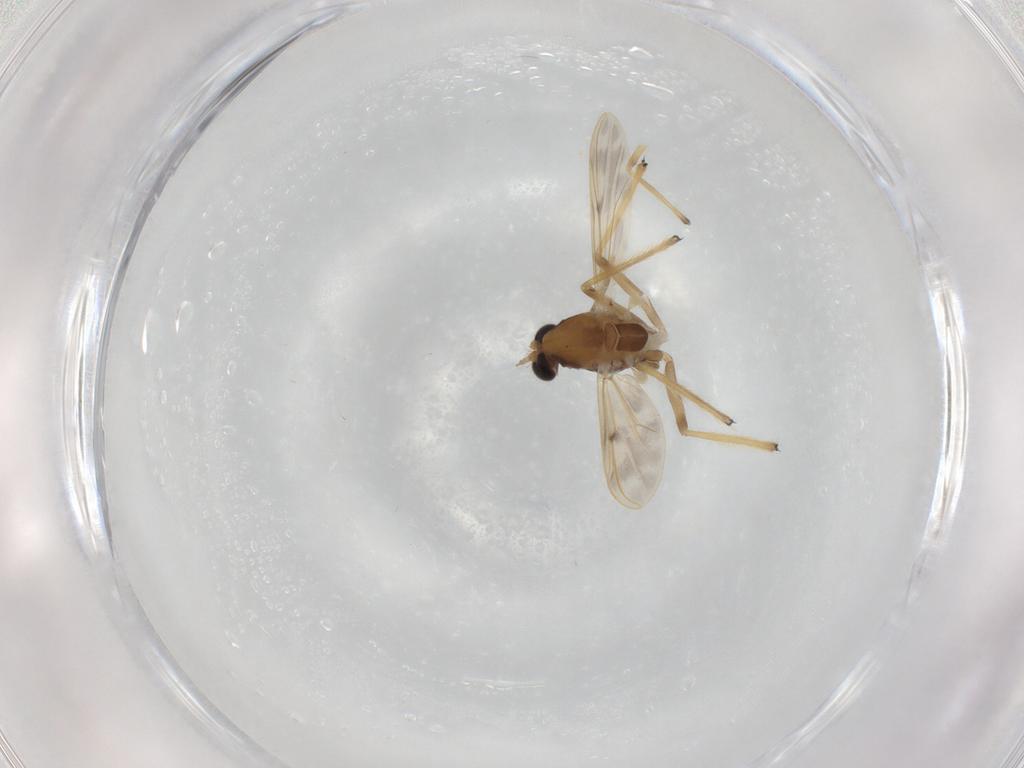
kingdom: Animalia
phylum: Arthropoda
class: Insecta
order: Diptera
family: Chironomidae
